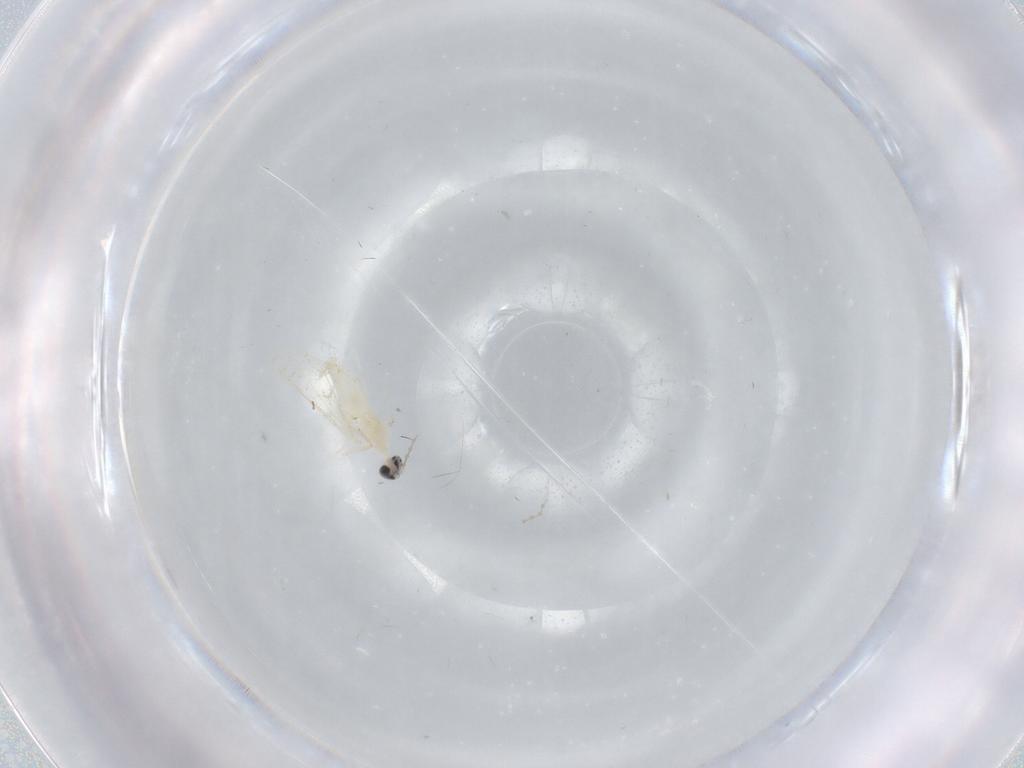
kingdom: Animalia
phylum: Arthropoda
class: Insecta
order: Diptera
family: Cecidomyiidae
